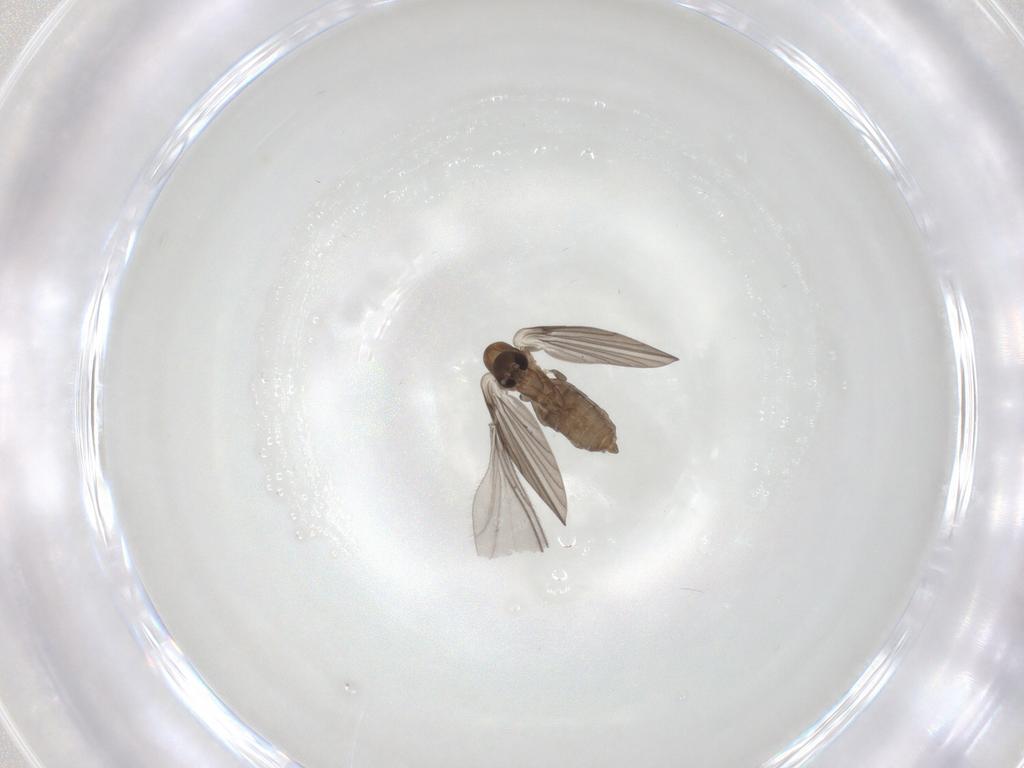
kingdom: Animalia
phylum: Arthropoda
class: Insecta
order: Diptera
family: Psychodidae
